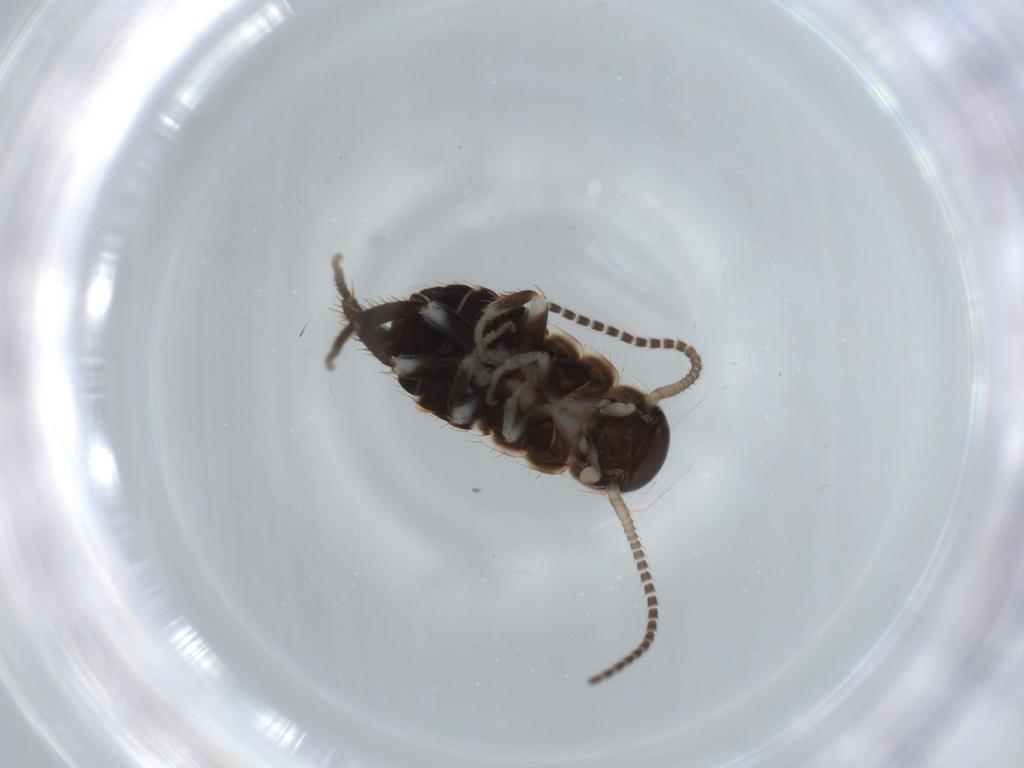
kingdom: Animalia
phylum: Arthropoda
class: Insecta
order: Blattodea
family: Ectobiidae
